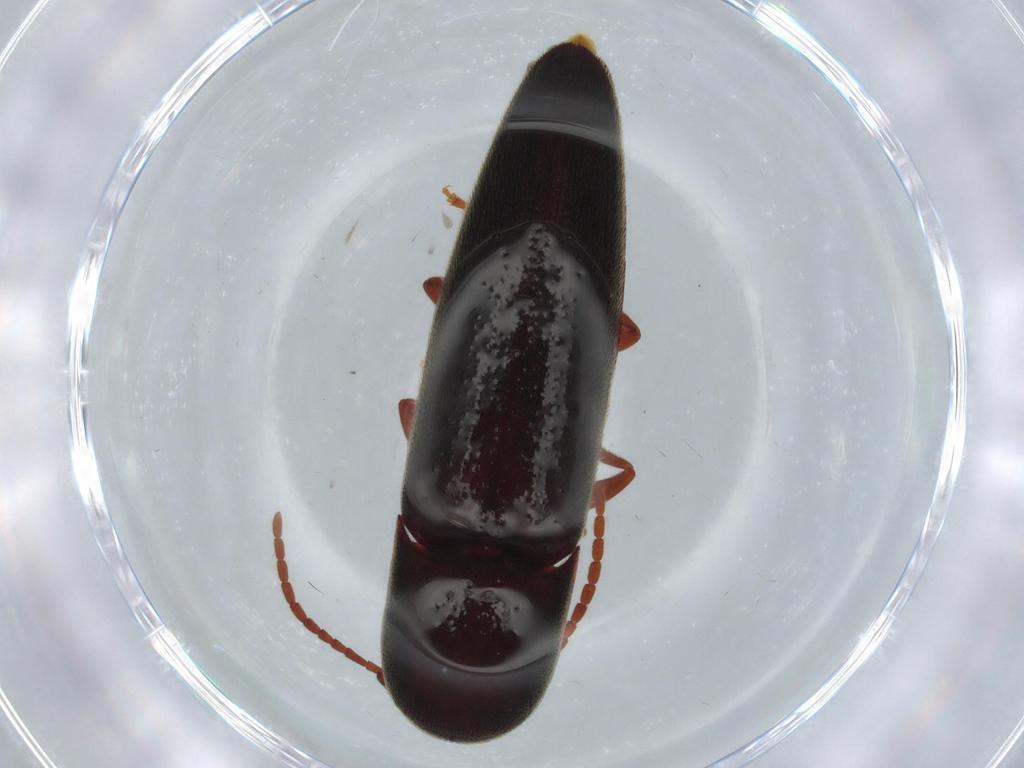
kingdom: Animalia
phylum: Arthropoda
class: Insecta
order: Coleoptera
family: Eucnemidae
